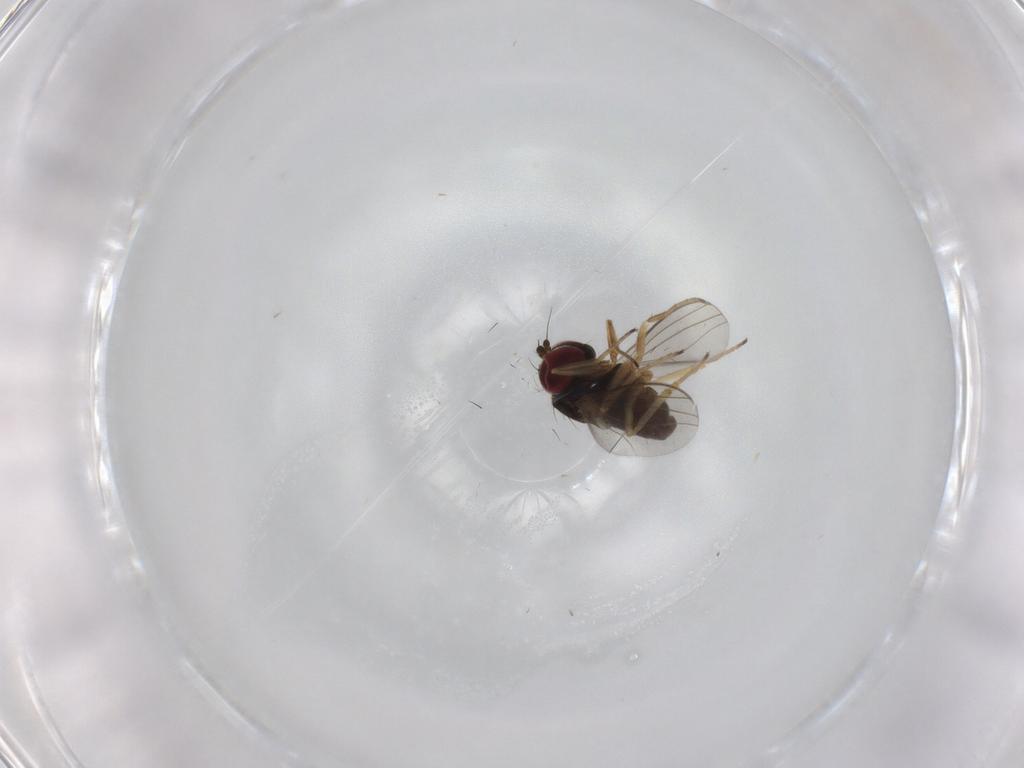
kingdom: Animalia
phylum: Arthropoda
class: Insecta
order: Diptera
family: Dolichopodidae
